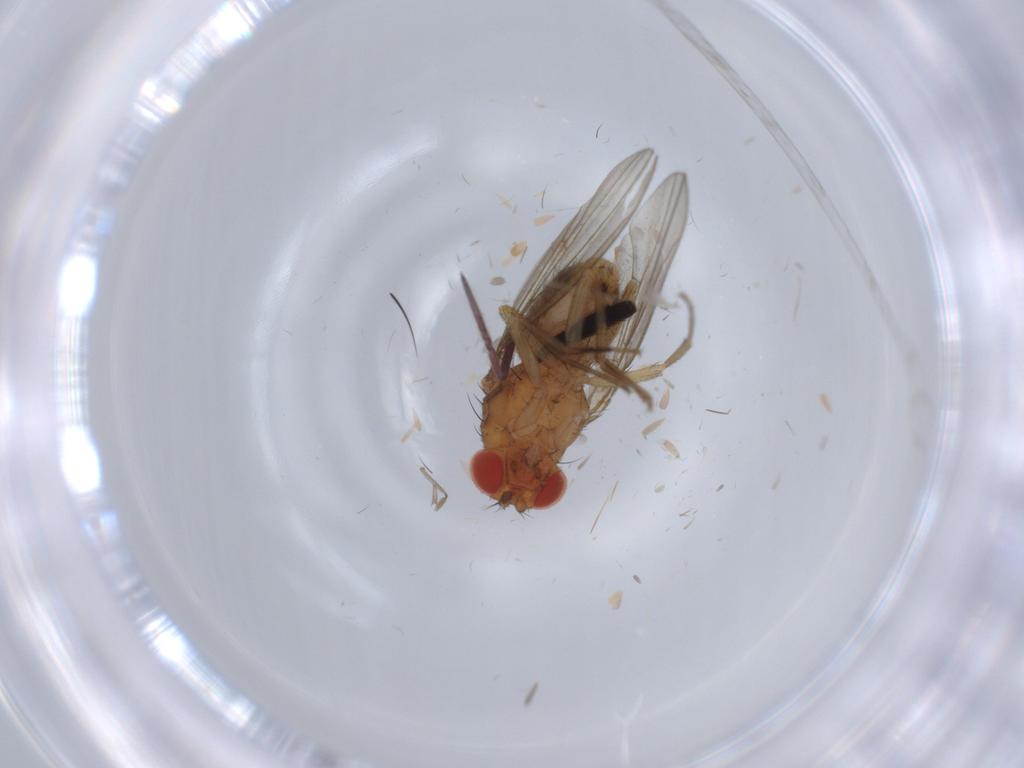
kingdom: Animalia
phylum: Arthropoda
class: Insecta
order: Diptera
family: Drosophilidae
